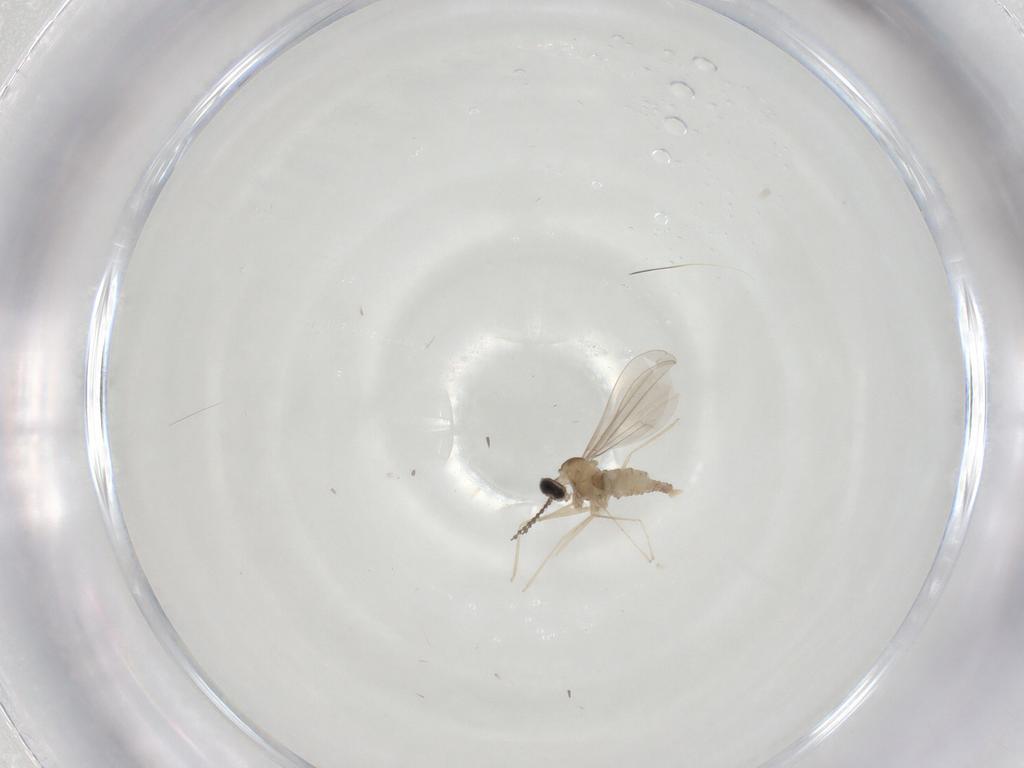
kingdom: Animalia
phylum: Arthropoda
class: Insecta
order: Diptera
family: Cecidomyiidae
